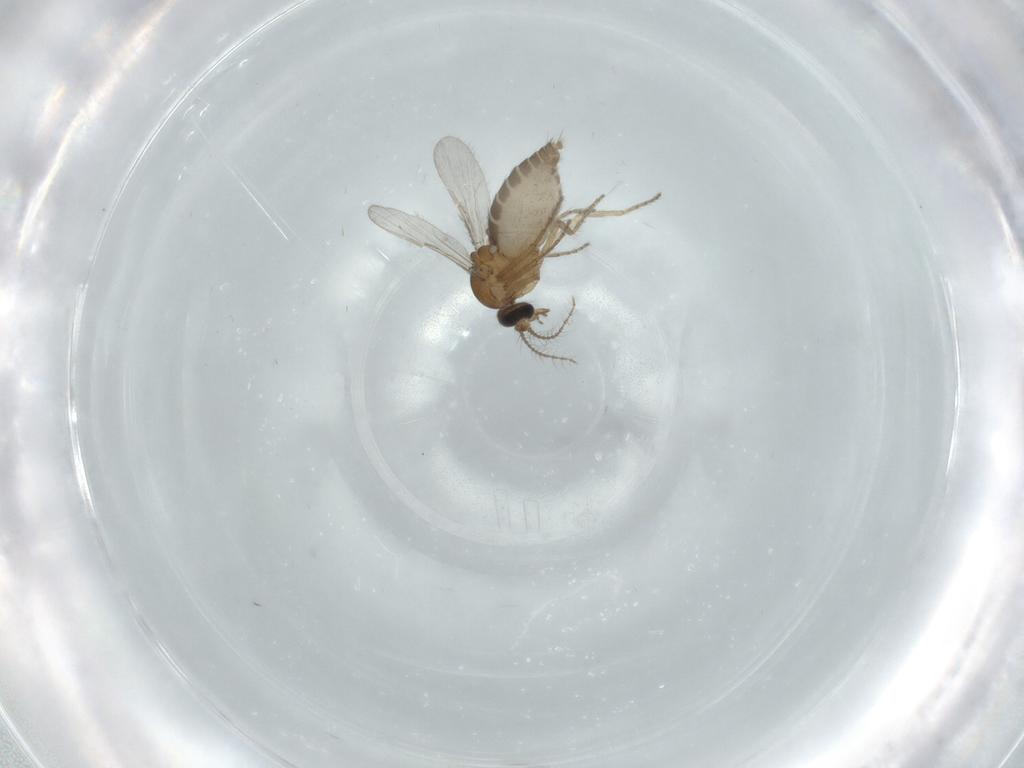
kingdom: Animalia
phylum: Arthropoda
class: Insecta
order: Diptera
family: Ceratopogonidae
